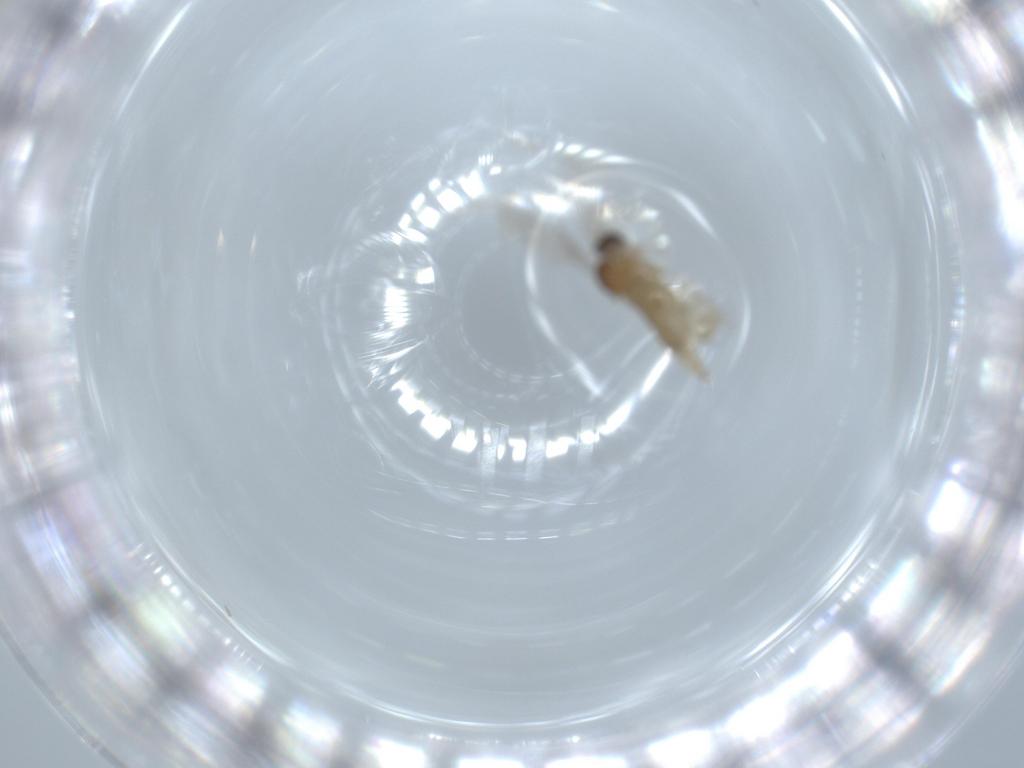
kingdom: Animalia
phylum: Arthropoda
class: Insecta
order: Diptera
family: Cecidomyiidae
